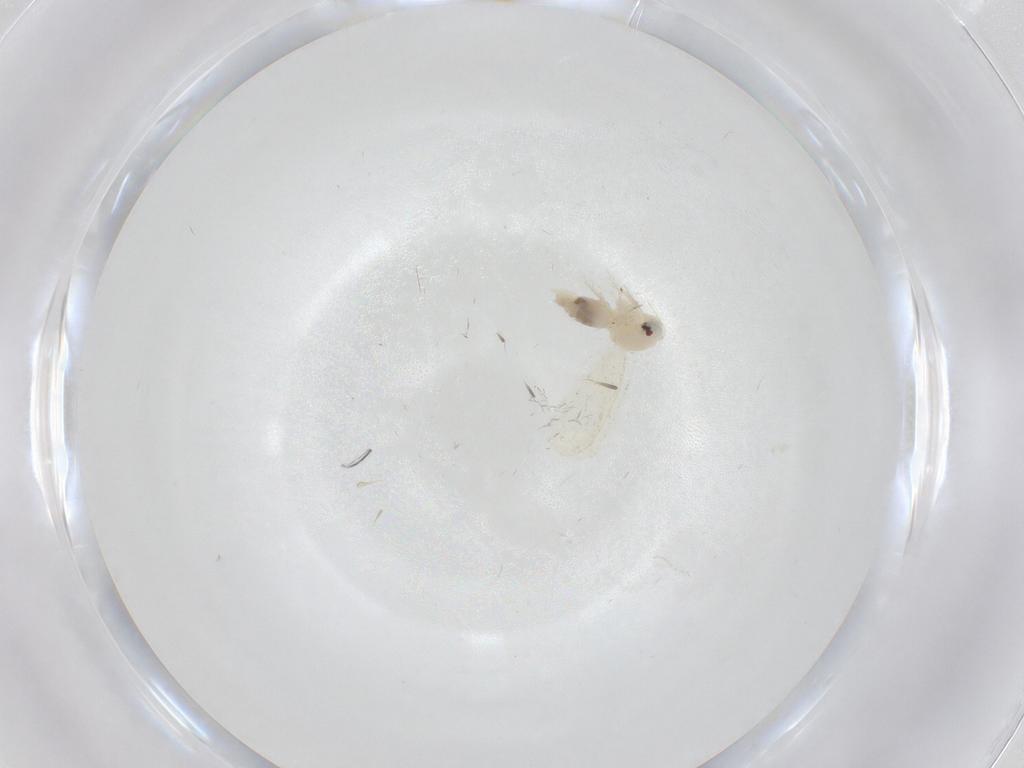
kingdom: Animalia
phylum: Arthropoda
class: Insecta
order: Hemiptera
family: Aleyrodidae
